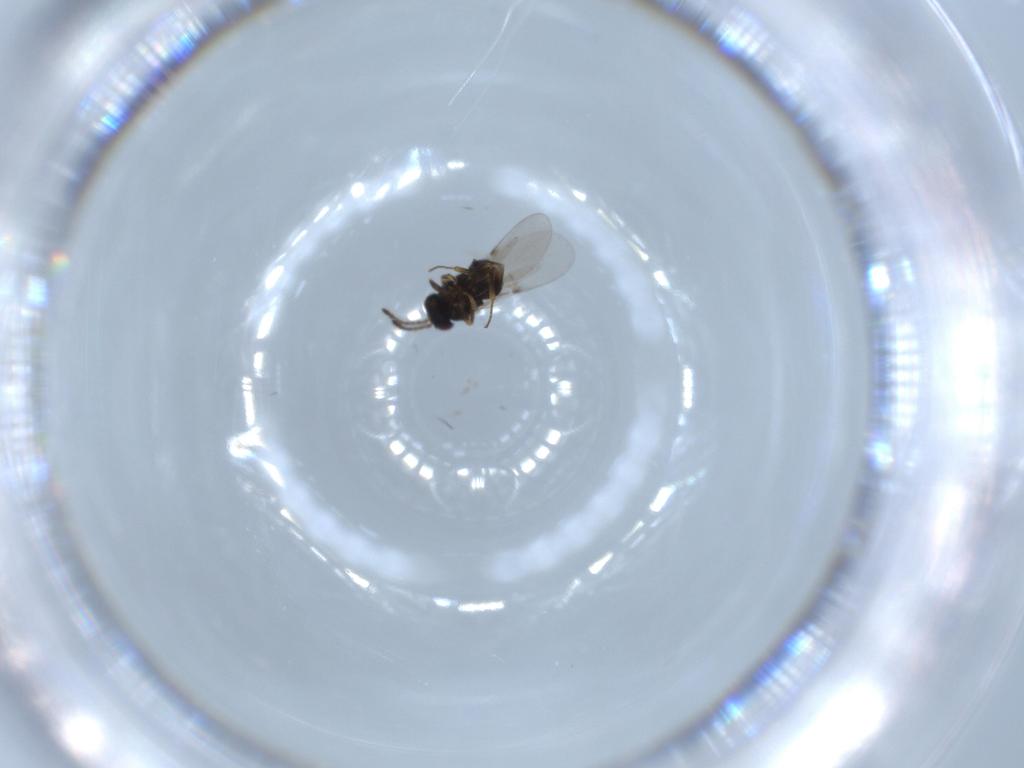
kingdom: Animalia
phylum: Arthropoda
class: Insecta
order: Hymenoptera
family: Encyrtidae
